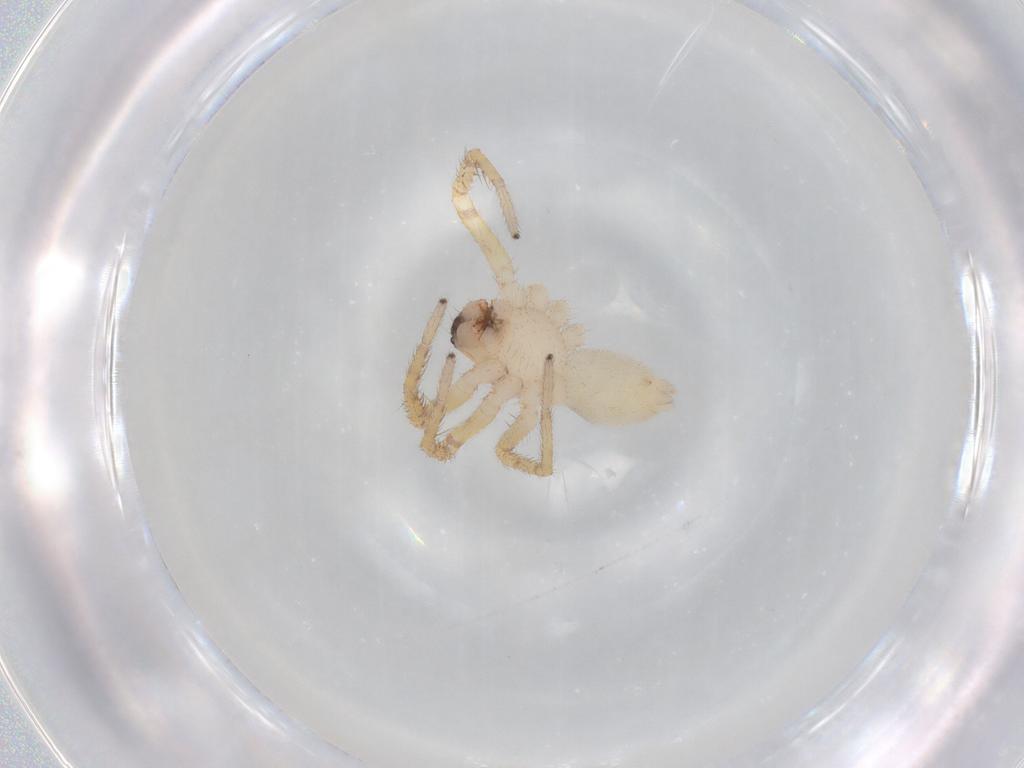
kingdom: Animalia
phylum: Arthropoda
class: Arachnida
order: Araneae
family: Corinnidae
